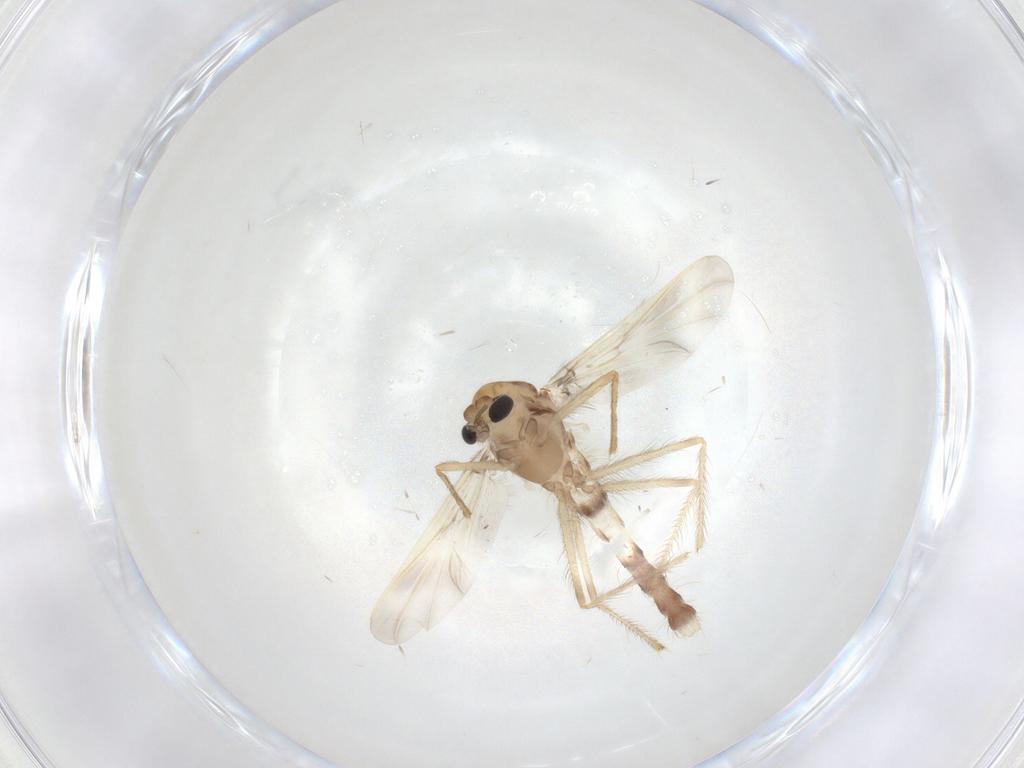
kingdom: Animalia
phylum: Arthropoda
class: Insecta
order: Diptera
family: Chironomidae
